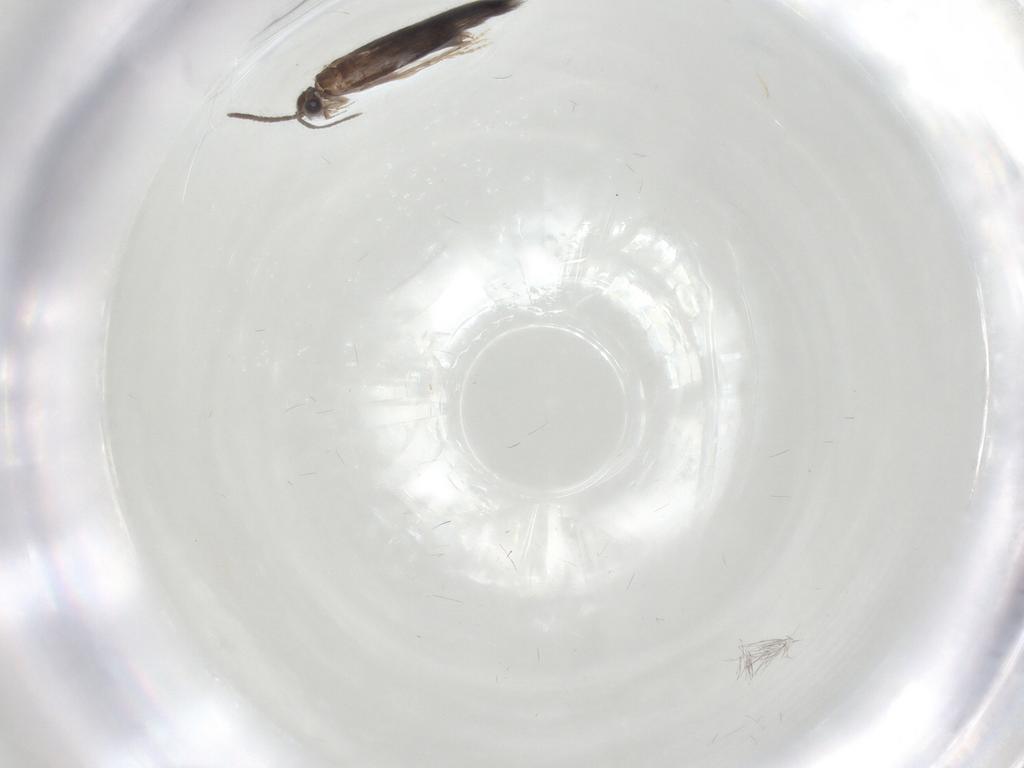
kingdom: Animalia
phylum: Arthropoda
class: Insecta
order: Trichoptera
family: Hydroptilidae
